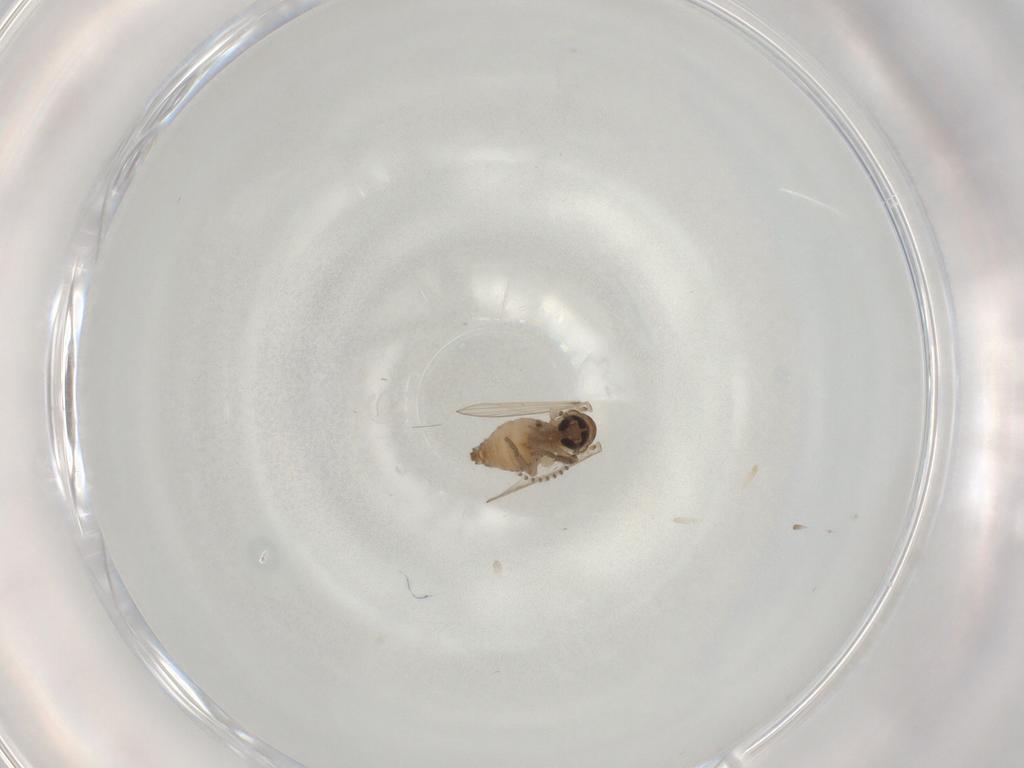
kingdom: Animalia
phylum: Arthropoda
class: Insecta
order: Diptera
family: Psychodidae
